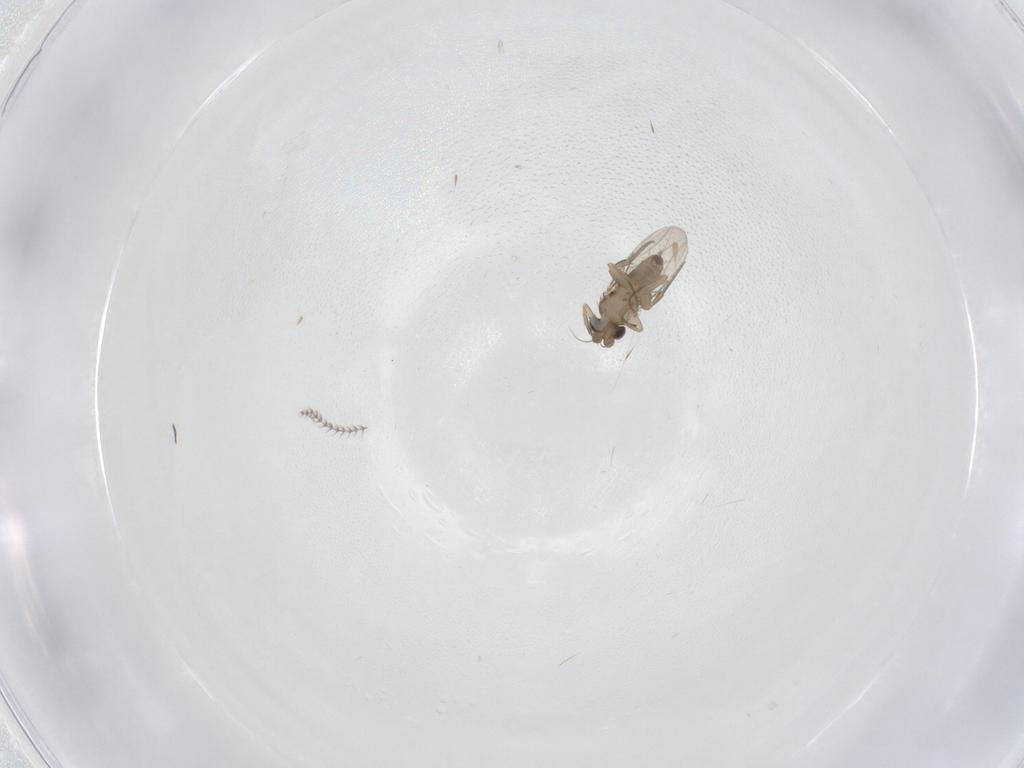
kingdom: Animalia
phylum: Arthropoda
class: Insecta
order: Diptera
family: Phoridae
